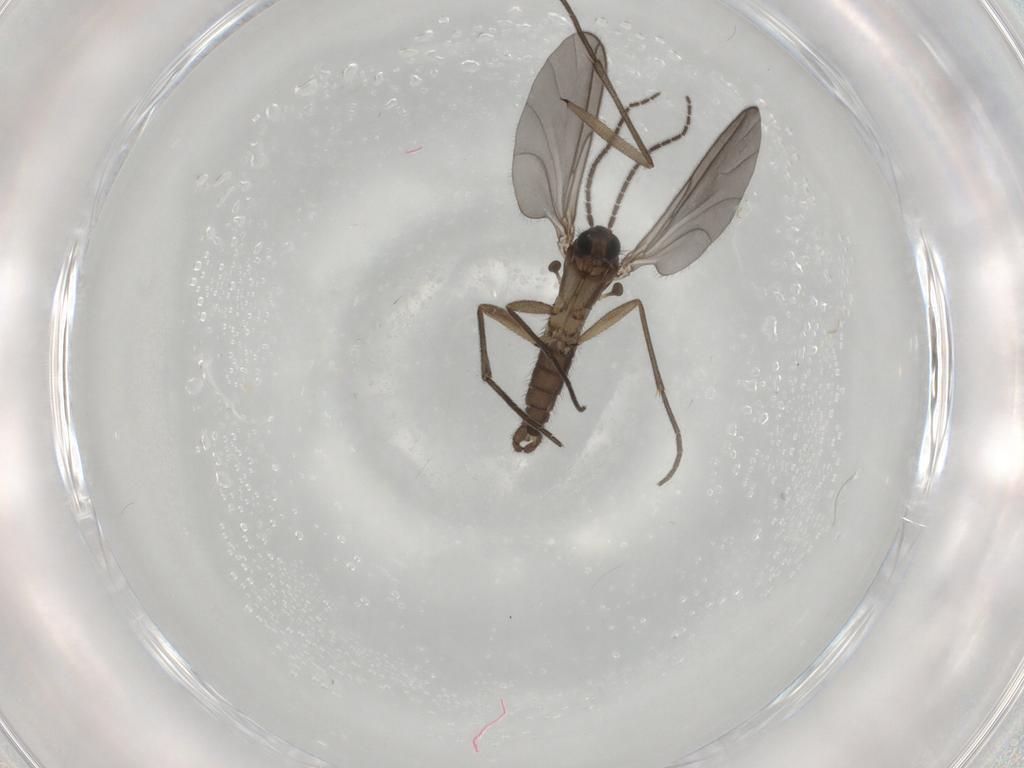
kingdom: Animalia
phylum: Arthropoda
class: Insecta
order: Diptera
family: Sciaridae
